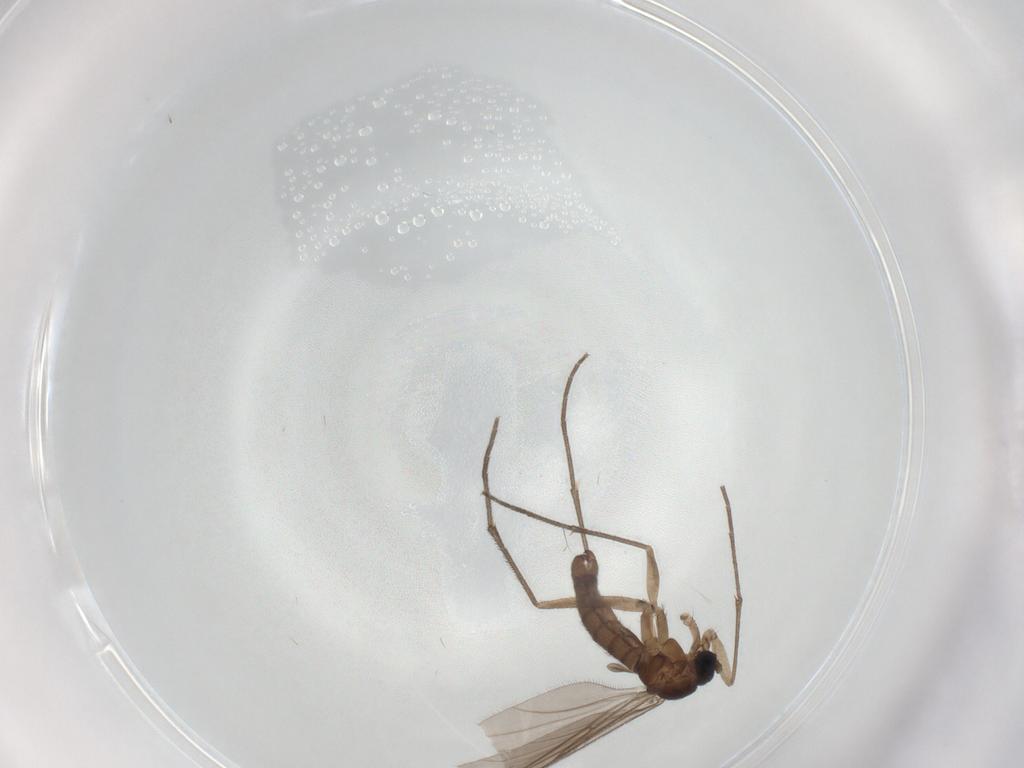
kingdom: Animalia
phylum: Arthropoda
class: Insecta
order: Diptera
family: Sciaridae
